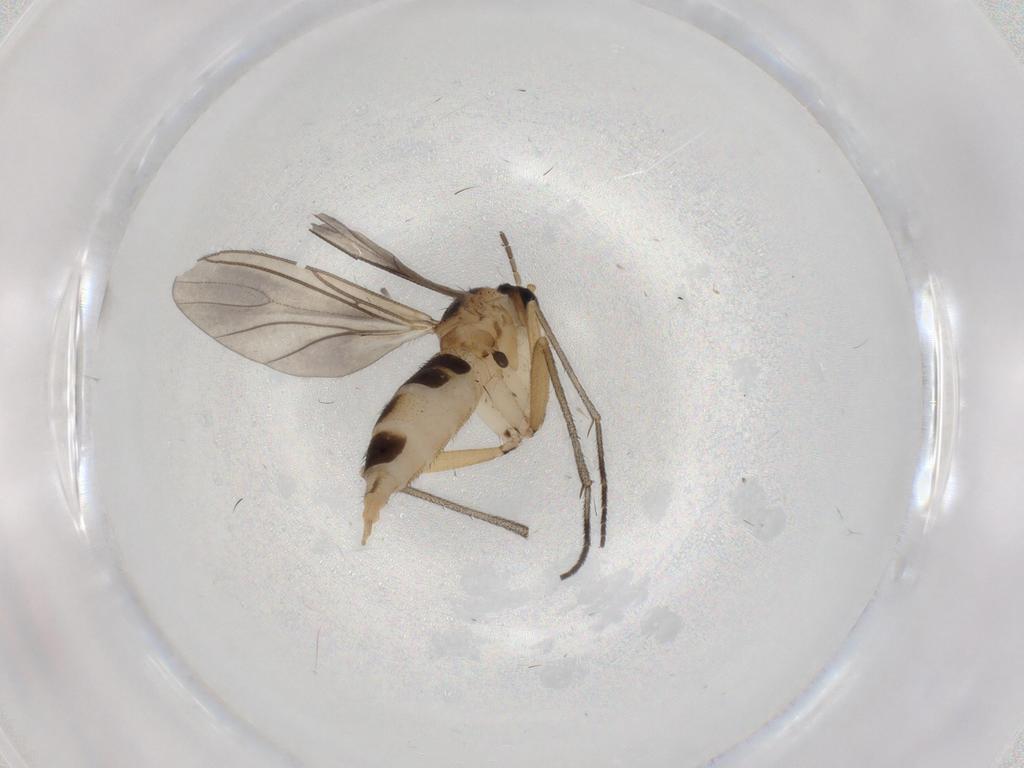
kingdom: Animalia
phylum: Arthropoda
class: Insecta
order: Diptera
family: Sciaridae
